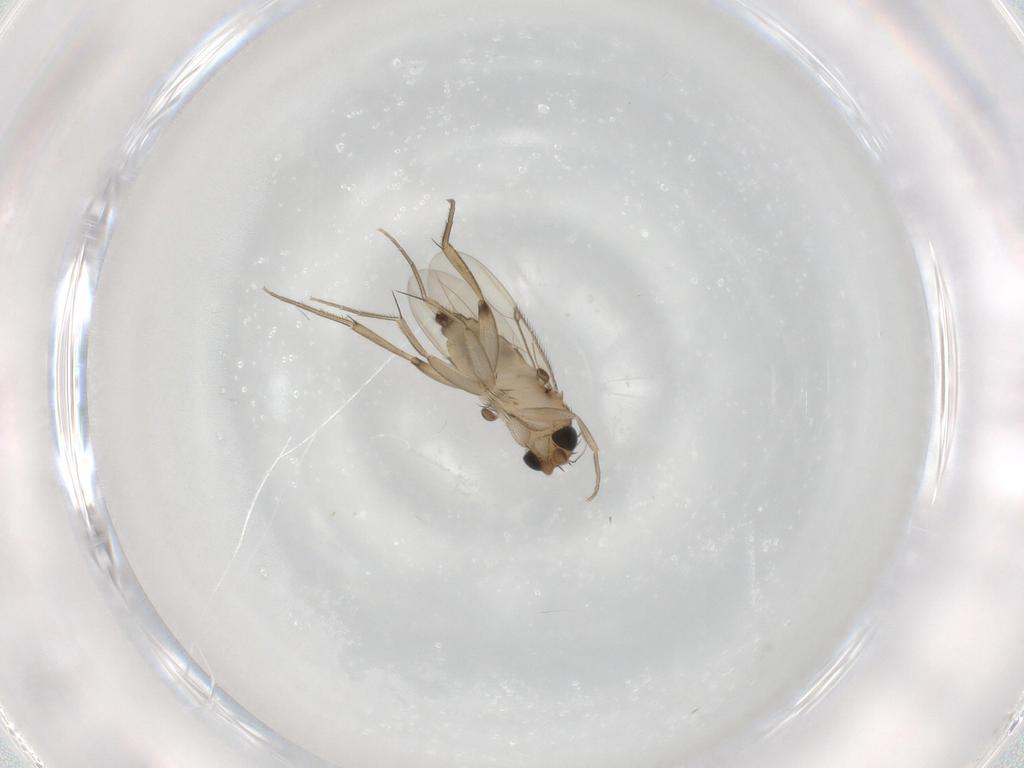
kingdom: Animalia
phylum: Arthropoda
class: Insecta
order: Diptera
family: Phoridae
